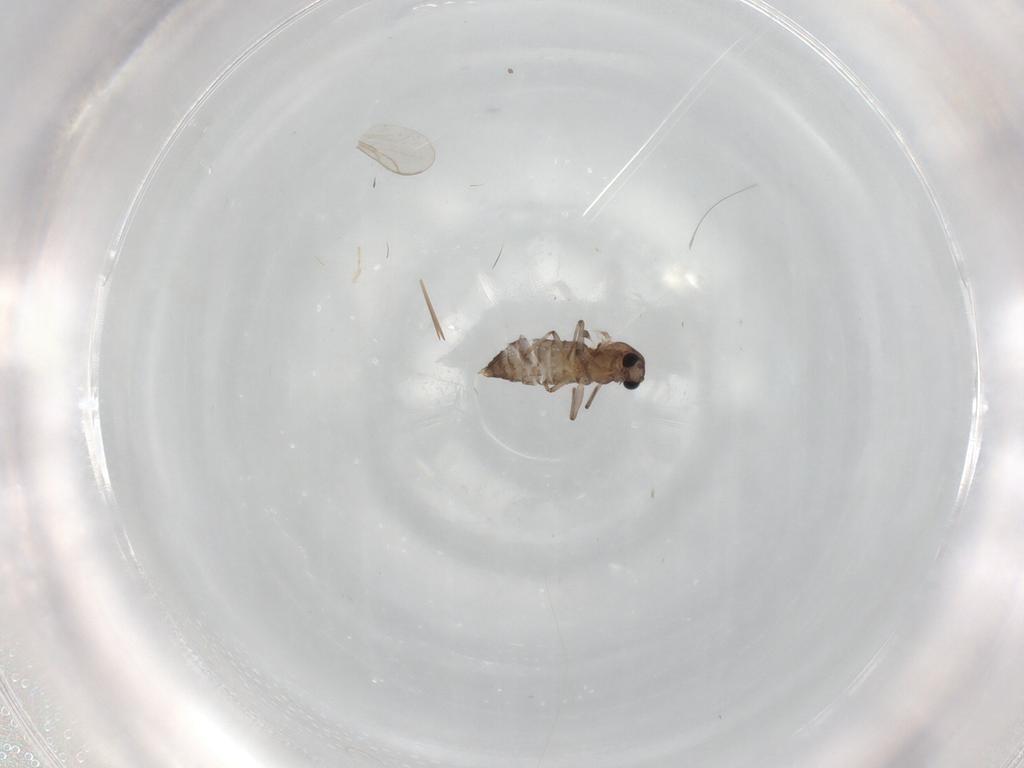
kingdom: Animalia
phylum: Arthropoda
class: Insecta
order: Diptera
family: Chironomidae
